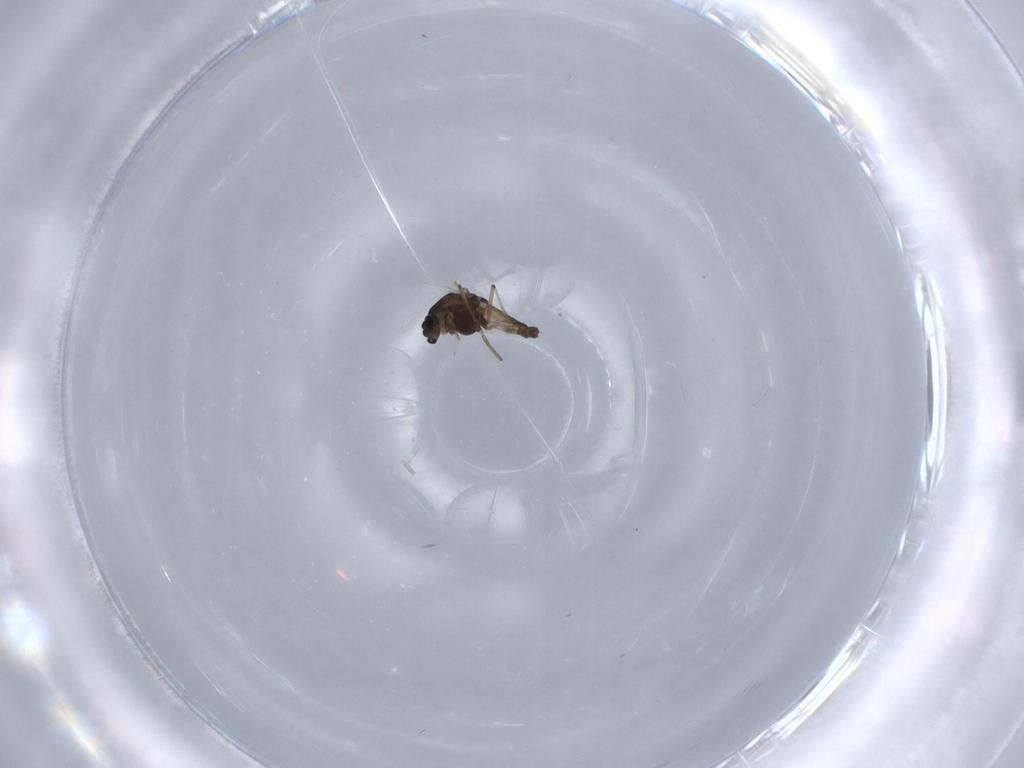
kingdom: Animalia
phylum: Arthropoda
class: Insecta
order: Diptera
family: Chironomidae
